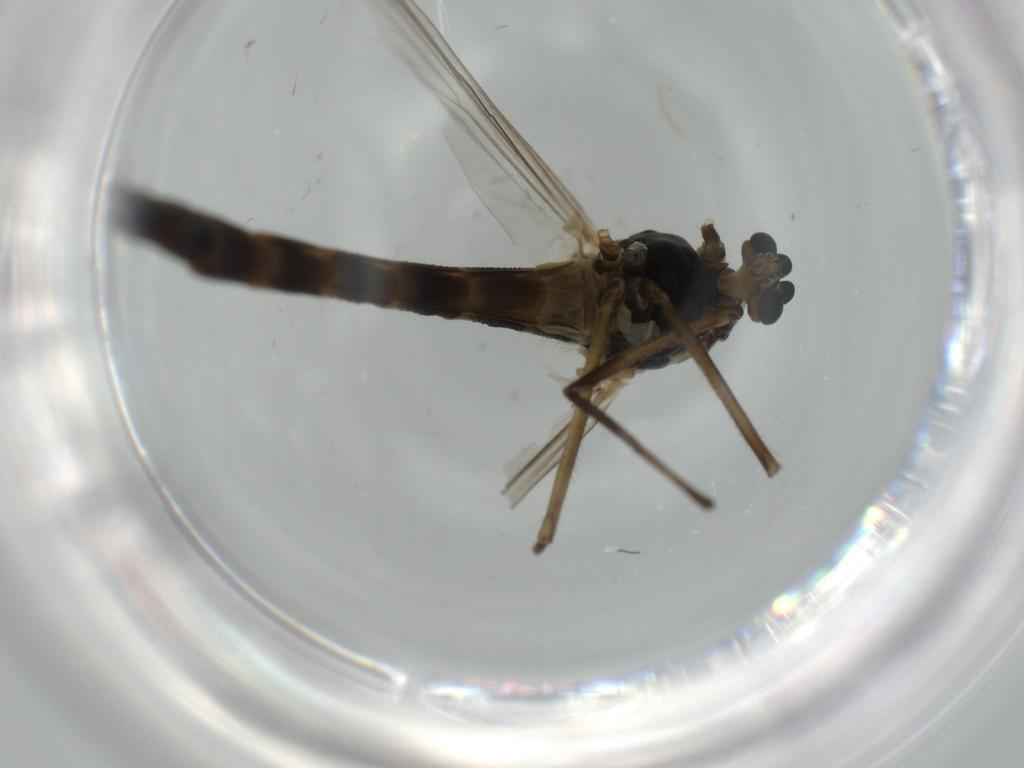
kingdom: Animalia
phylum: Arthropoda
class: Insecta
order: Diptera
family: Chironomidae
